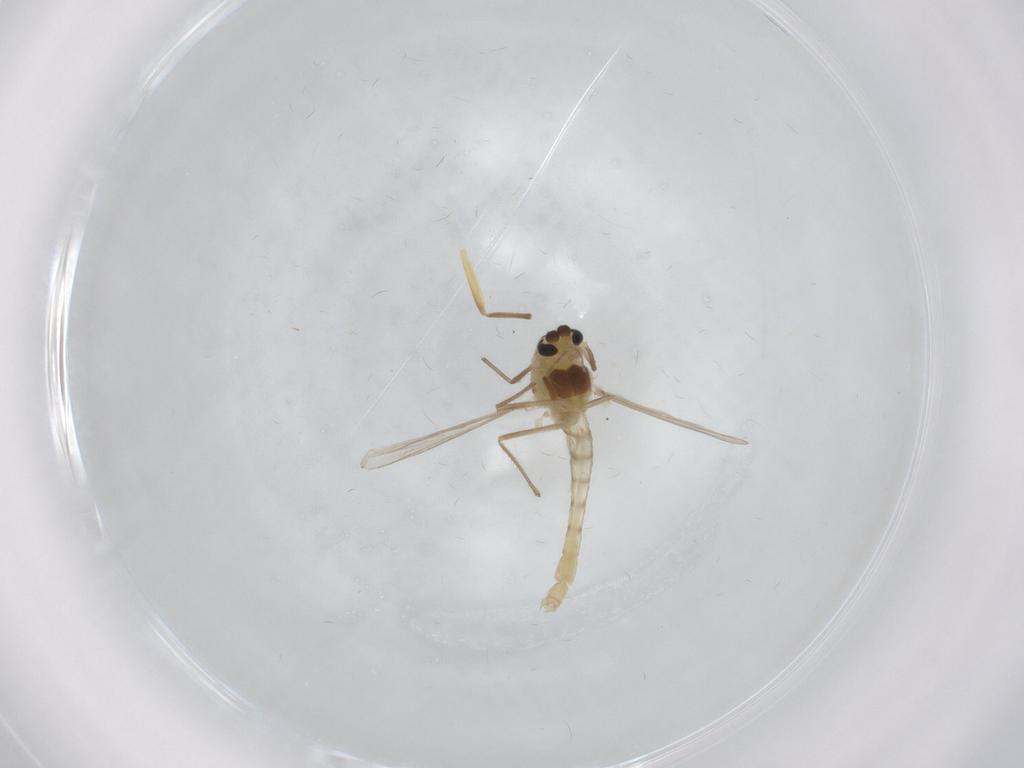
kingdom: Animalia
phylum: Arthropoda
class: Insecta
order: Diptera
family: Chironomidae
